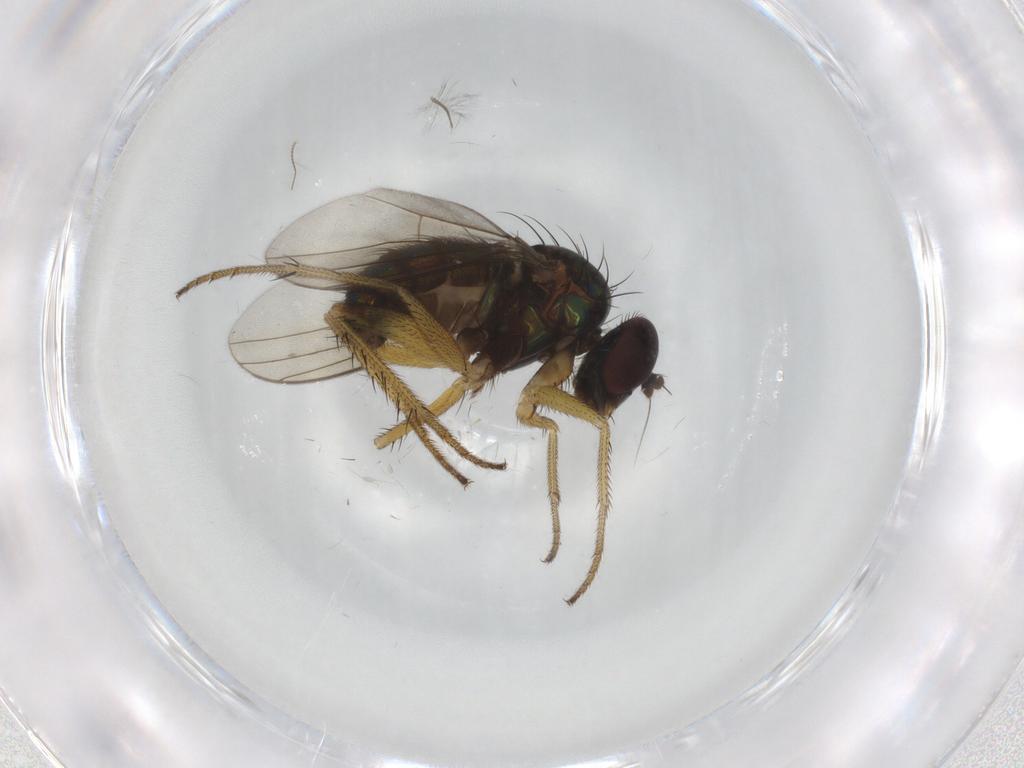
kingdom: Animalia
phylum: Arthropoda
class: Insecta
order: Diptera
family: Dolichopodidae
